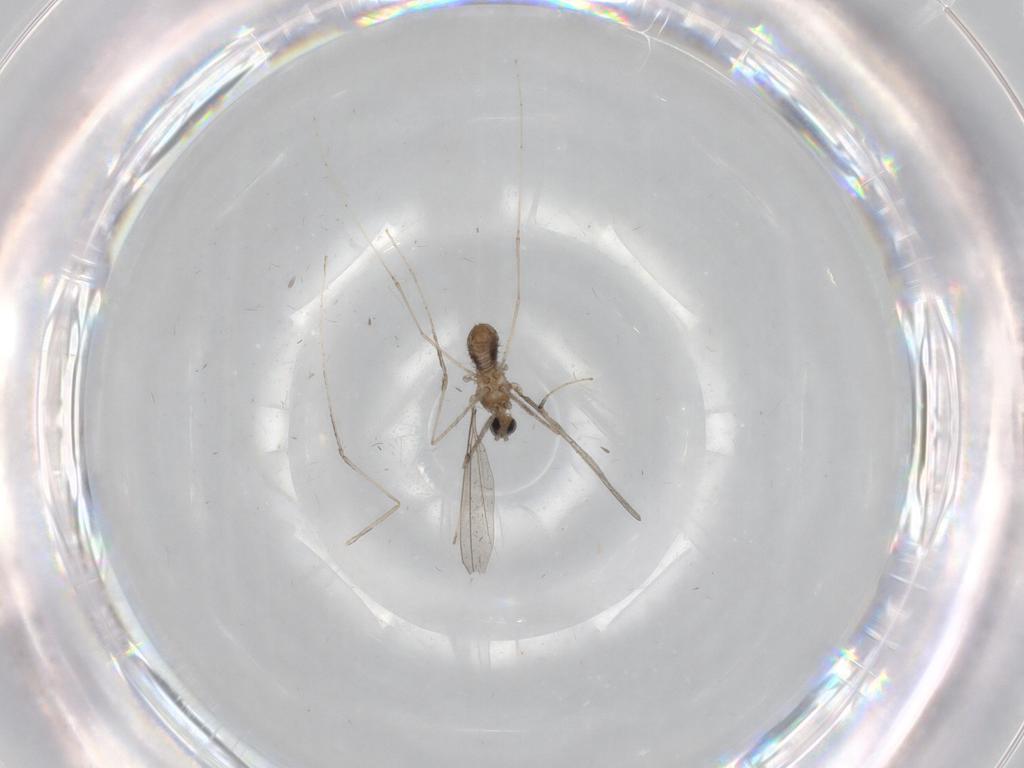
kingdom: Animalia
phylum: Arthropoda
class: Insecta
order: Diptera
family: Cecidomyiidae
